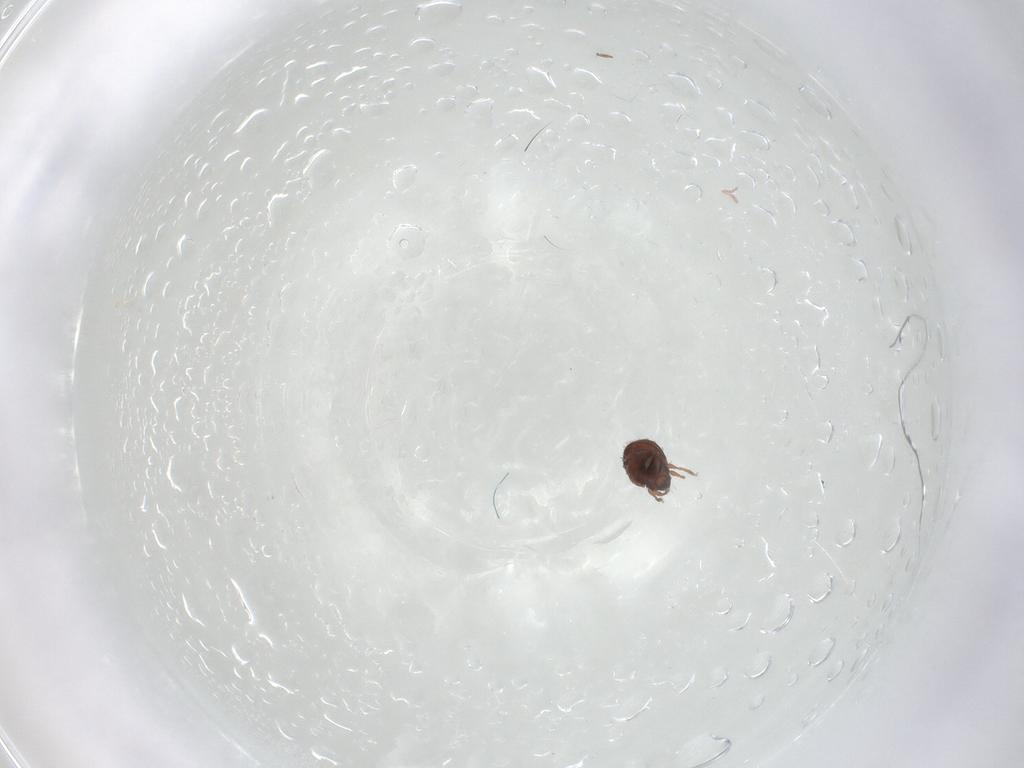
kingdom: Animalia
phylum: Arthropoda
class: Arachnida
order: Sarcoptiformes
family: Scheloribatidae
